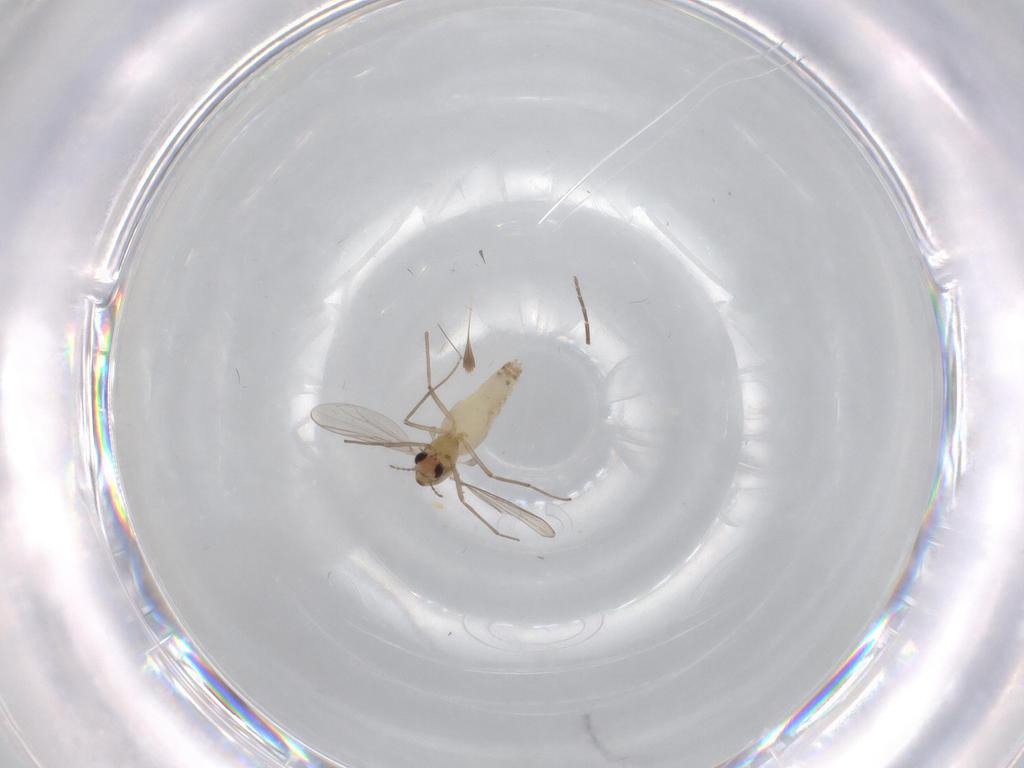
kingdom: Animalia
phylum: Arthropoda
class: Insecta
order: Diptera
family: Chironomidae
